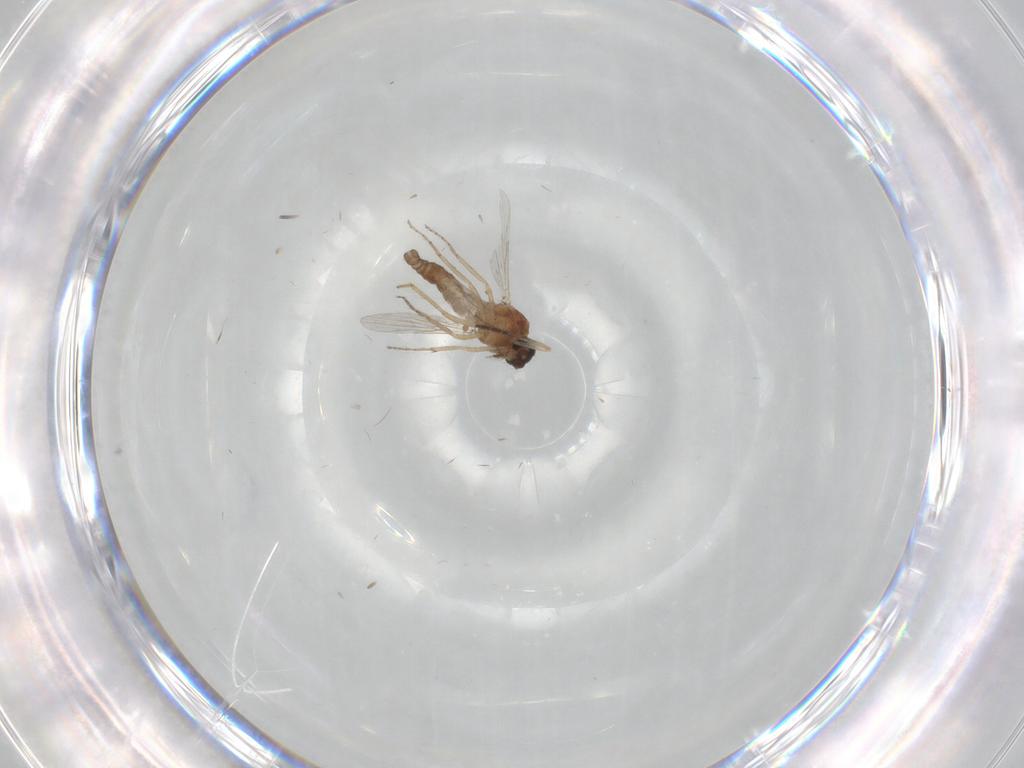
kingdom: Animalia
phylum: Arthropoda
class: Insecta
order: Diptera
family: Ceratopogonidae
